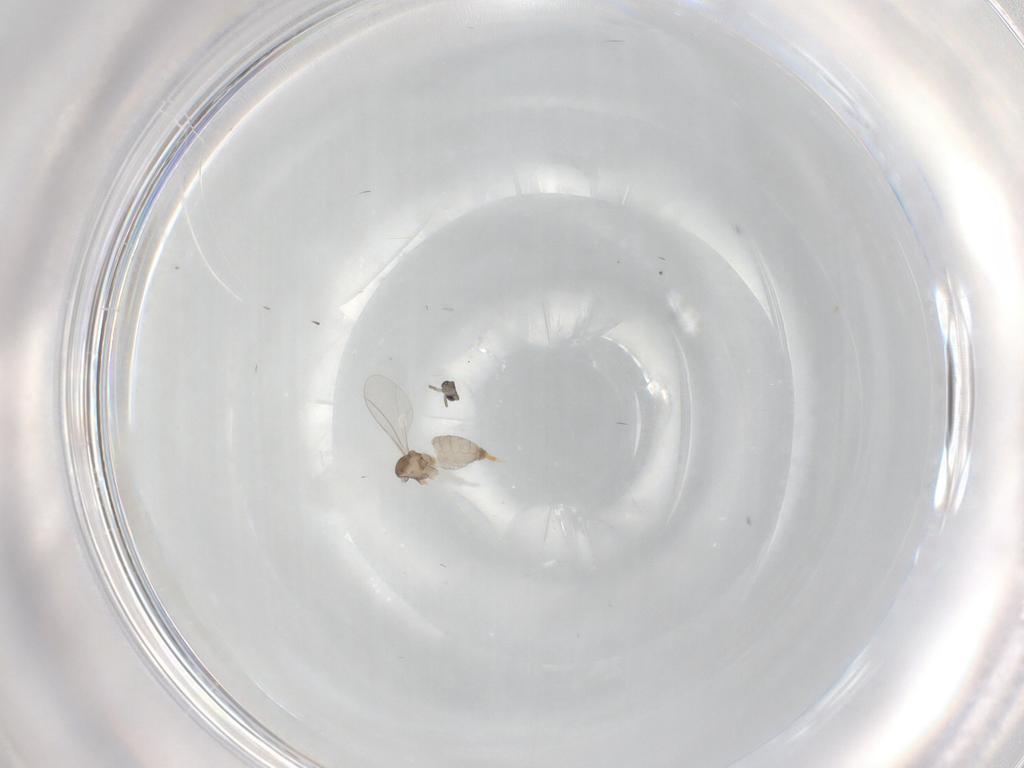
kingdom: Animalia
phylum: Arthropoda
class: Insecta
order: Diptera
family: Cecidomyiidae
